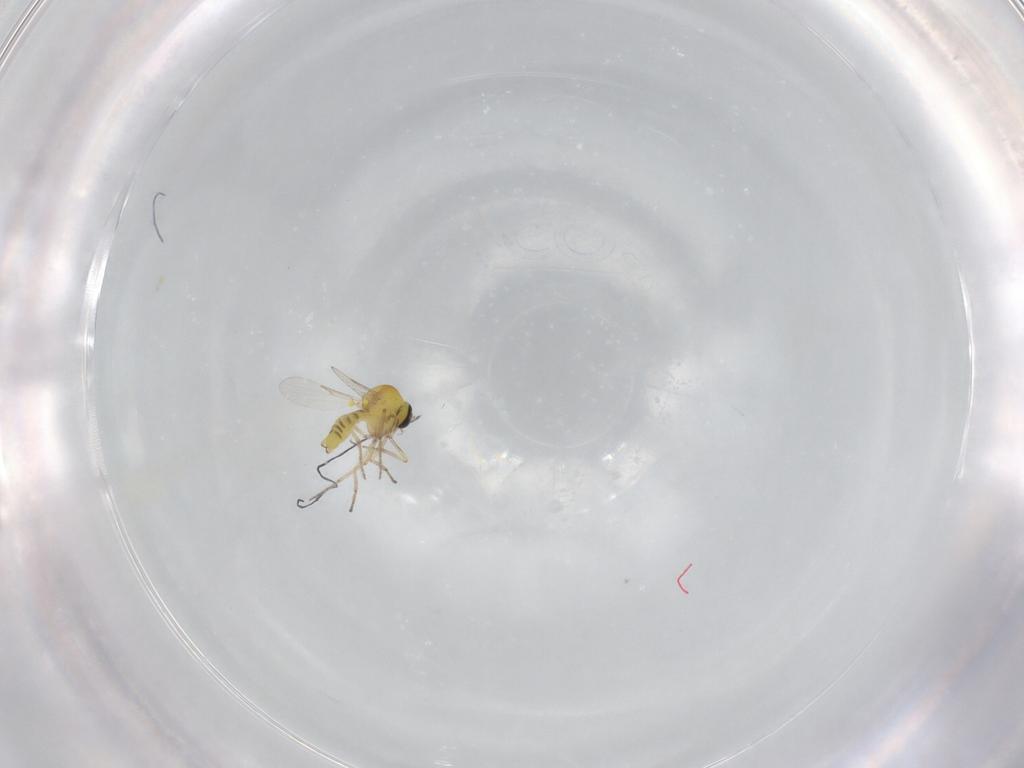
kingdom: Animalia
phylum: Arthropoda
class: Insecta
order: Diptera
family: Ceratopogonidae
